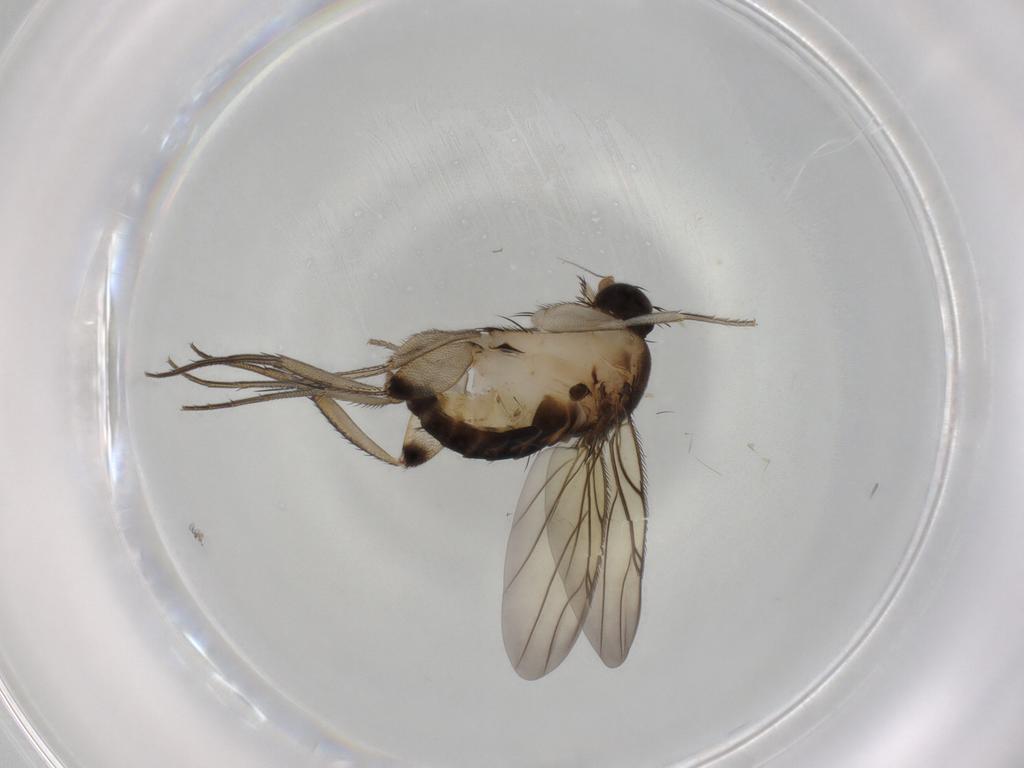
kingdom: Animalia
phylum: Arthropoda
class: Insecta
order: Diptera
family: Phoridae
